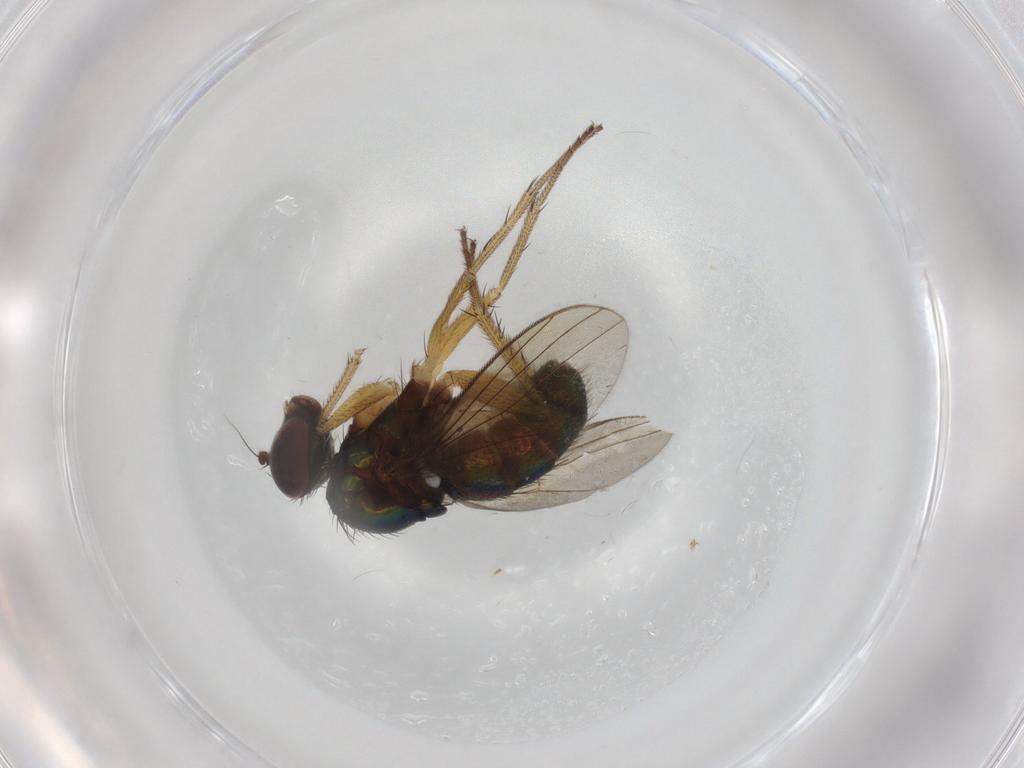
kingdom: Animalia
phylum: Arthropoda
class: Insecta
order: Diptera
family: Dolichopodidae
